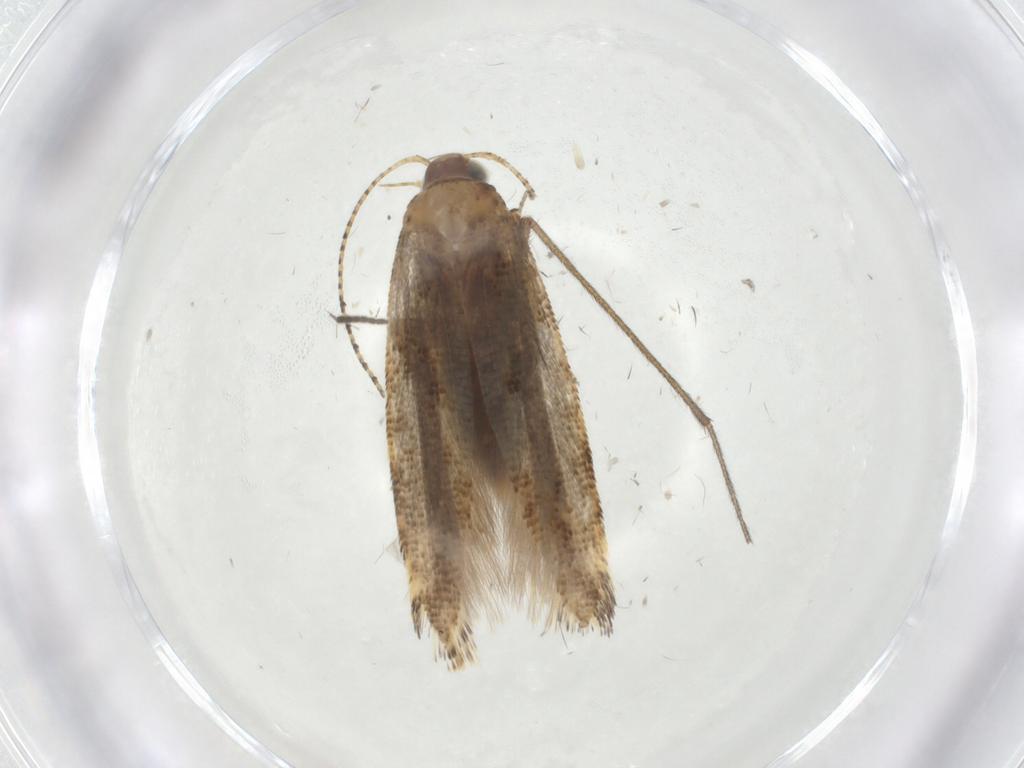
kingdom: Animalia
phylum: Arthropoda
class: Insecta
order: Lepidoptera
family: Gelechiidae
